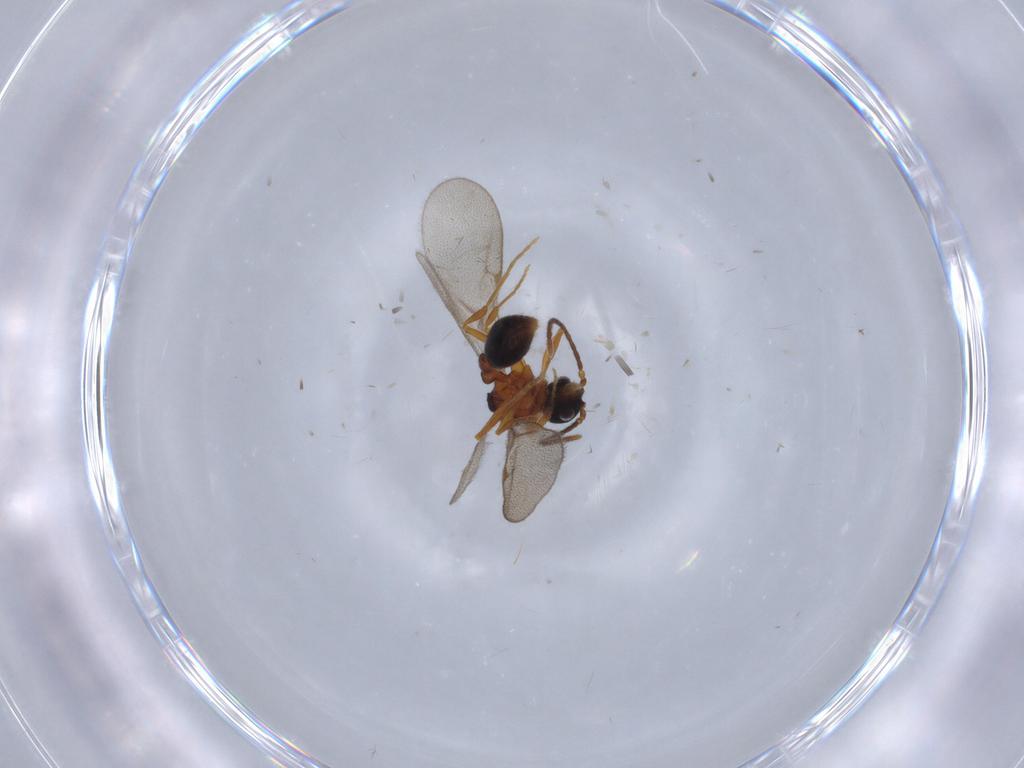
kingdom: Animalia
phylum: Arthropoda
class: Insecta
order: Hymenoptera
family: Formicidae
